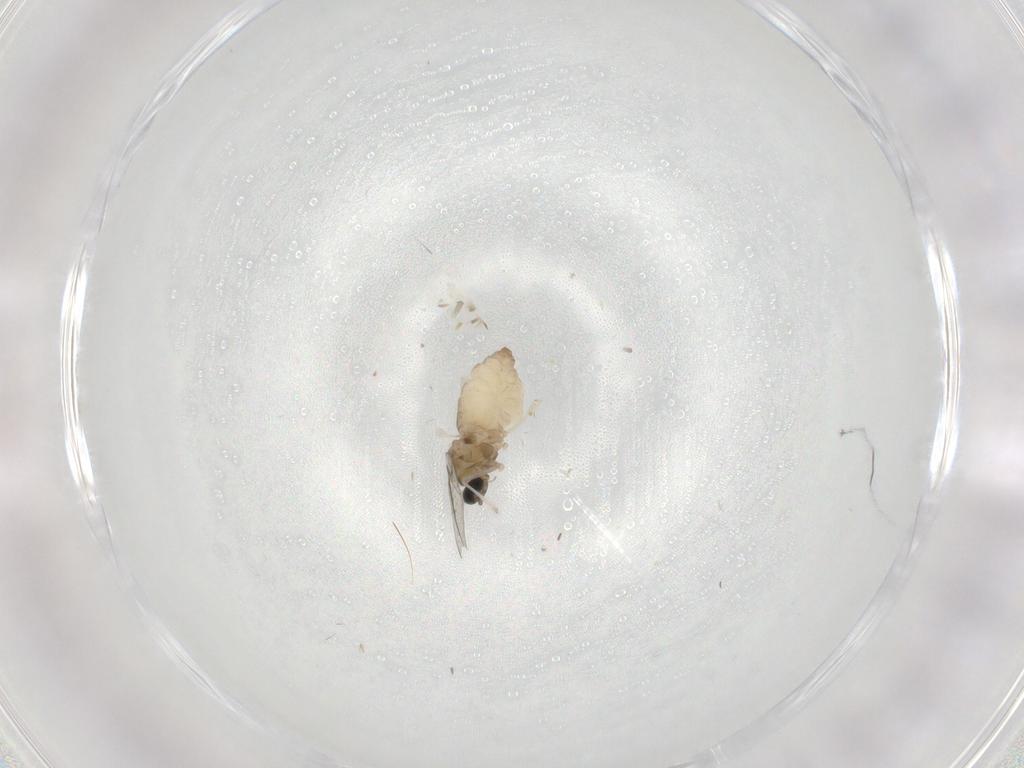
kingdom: Animalia
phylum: Arthropoda
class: Insecta
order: Diptera
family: Cecidomyiidae
